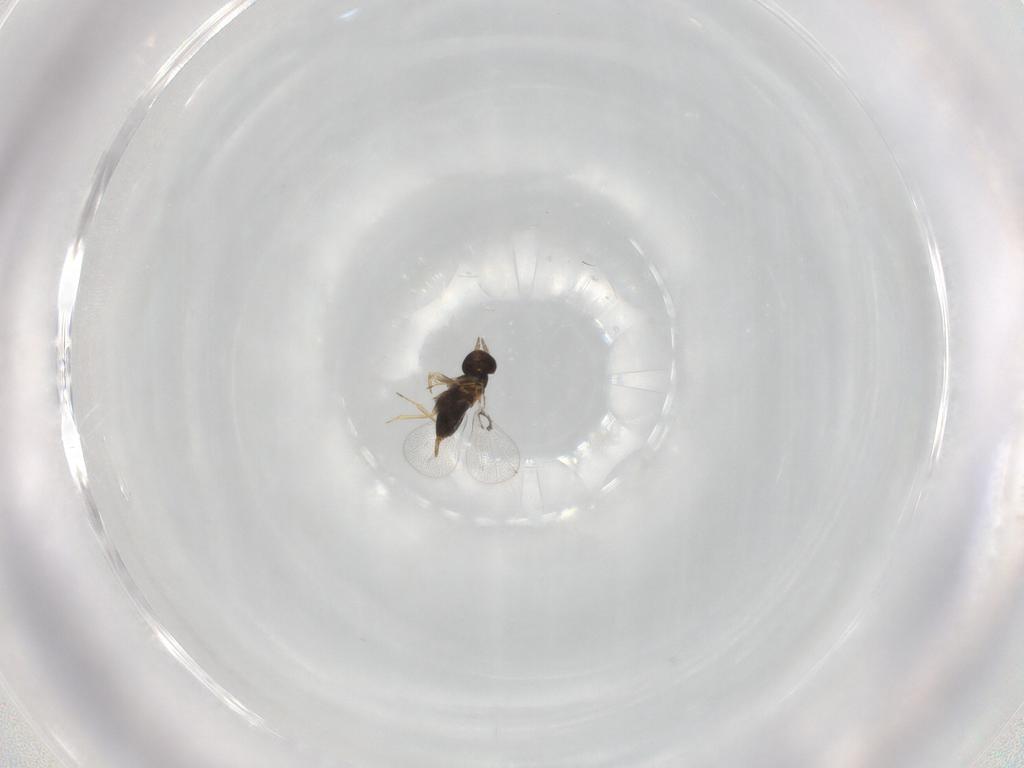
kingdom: Animalia
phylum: Arthropoda
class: Insecta
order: Hymenoptera
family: Trichogrammatidae
